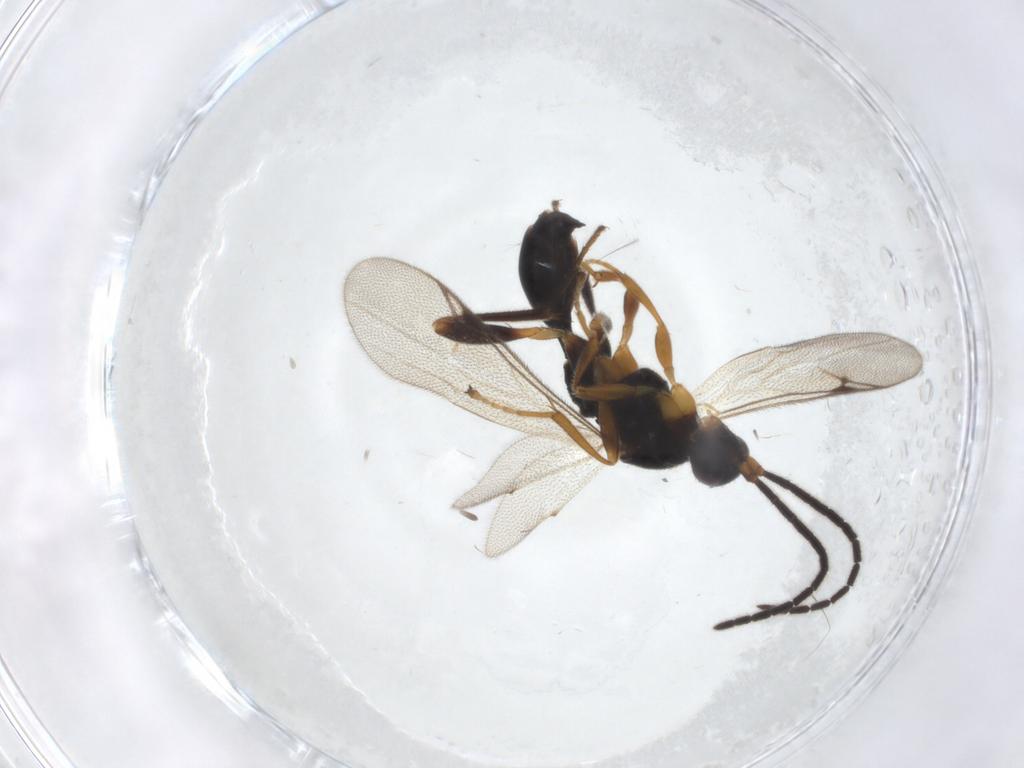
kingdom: Animalia
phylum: Arthropoda
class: Insecta
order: Hymenoptera
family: Proctotrupidae
